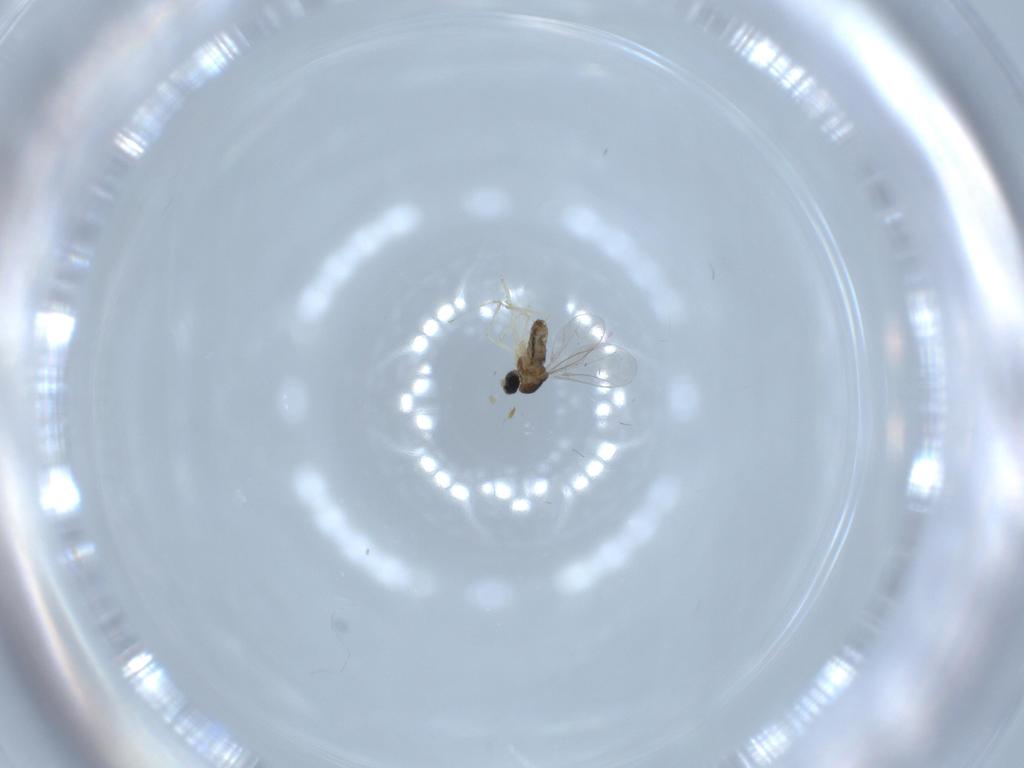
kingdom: Animalia
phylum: Arthropoda
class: Insecta
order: Diptera
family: Cecidomyiidae
